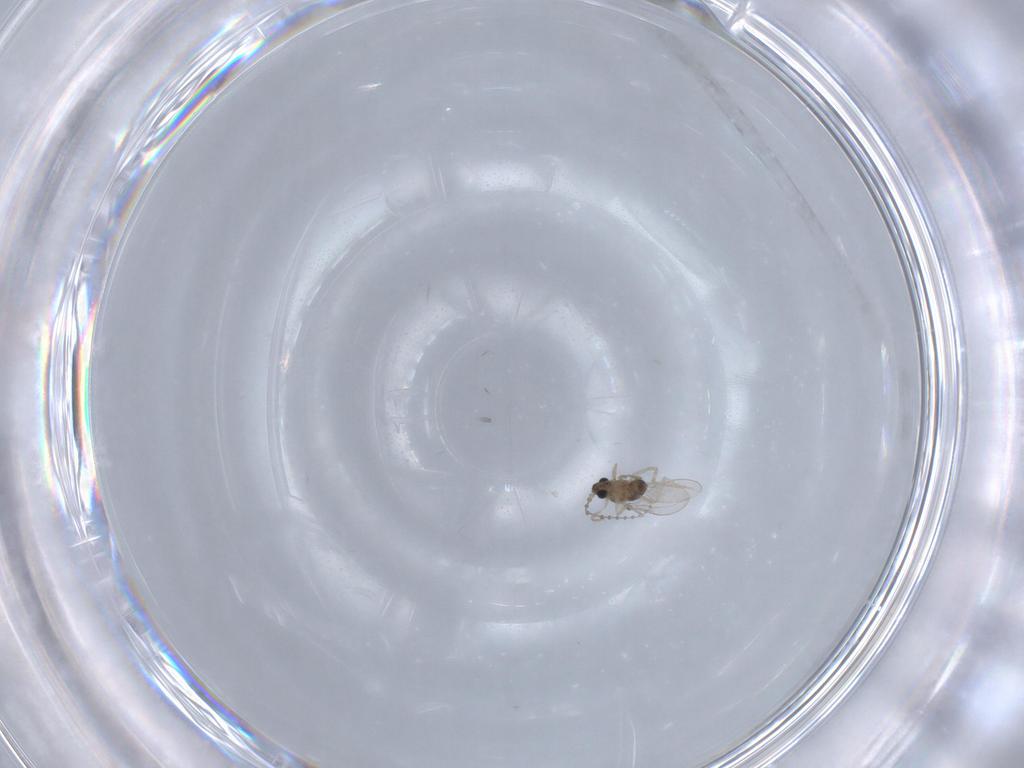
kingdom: Animalia
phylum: Arthropoda
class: Insecta
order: Diptera
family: Cecidomyiidae
